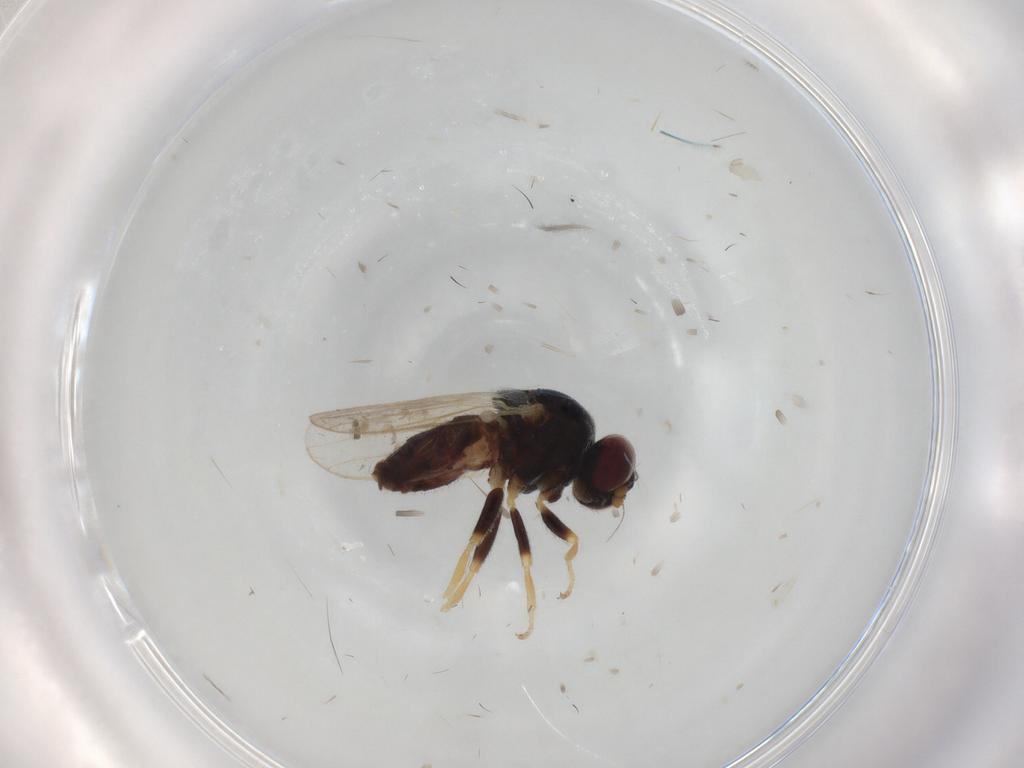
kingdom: Animalia
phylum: Arthropoda
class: Insecta
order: Diptera
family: Chloropidae
